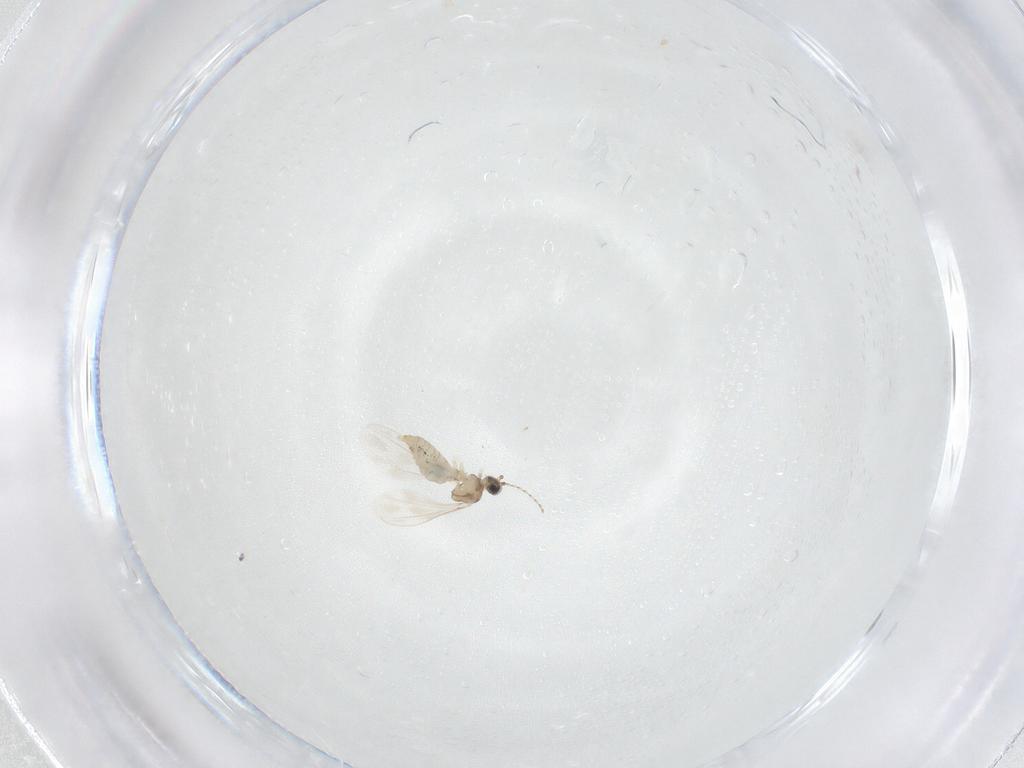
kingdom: Animalia
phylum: Arthropoda
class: Insecta
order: Diptera
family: Cecidomyiidae
